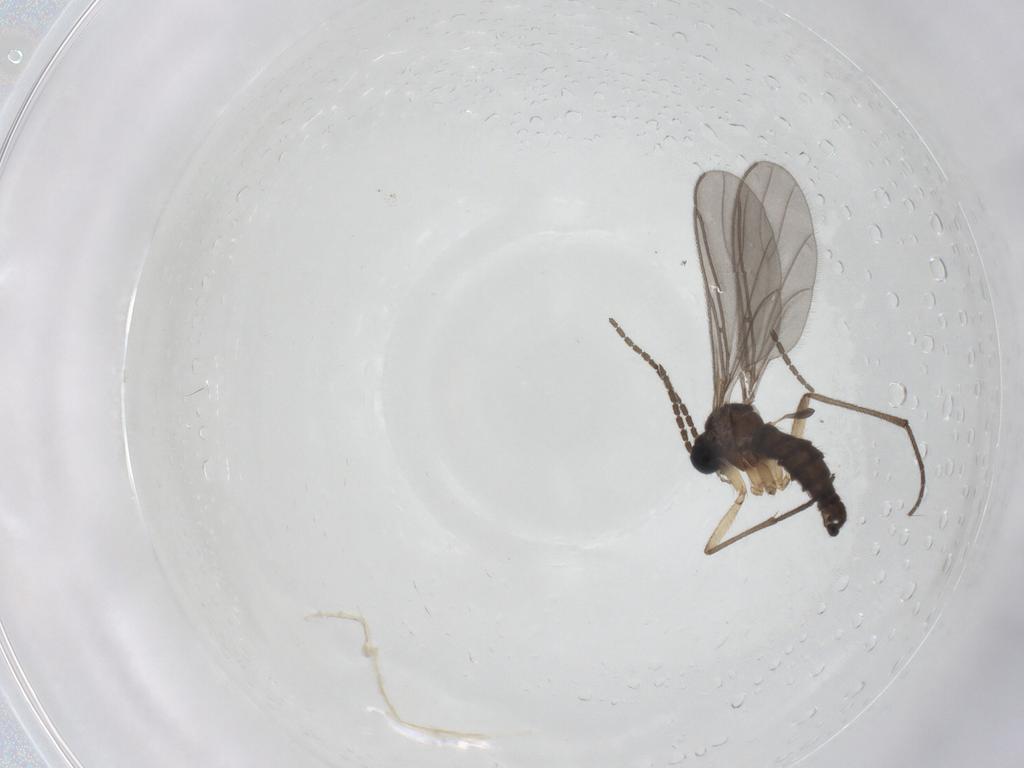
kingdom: Animalia
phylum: Arthropoda
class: Insecta
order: Diptera
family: Sciaridae
